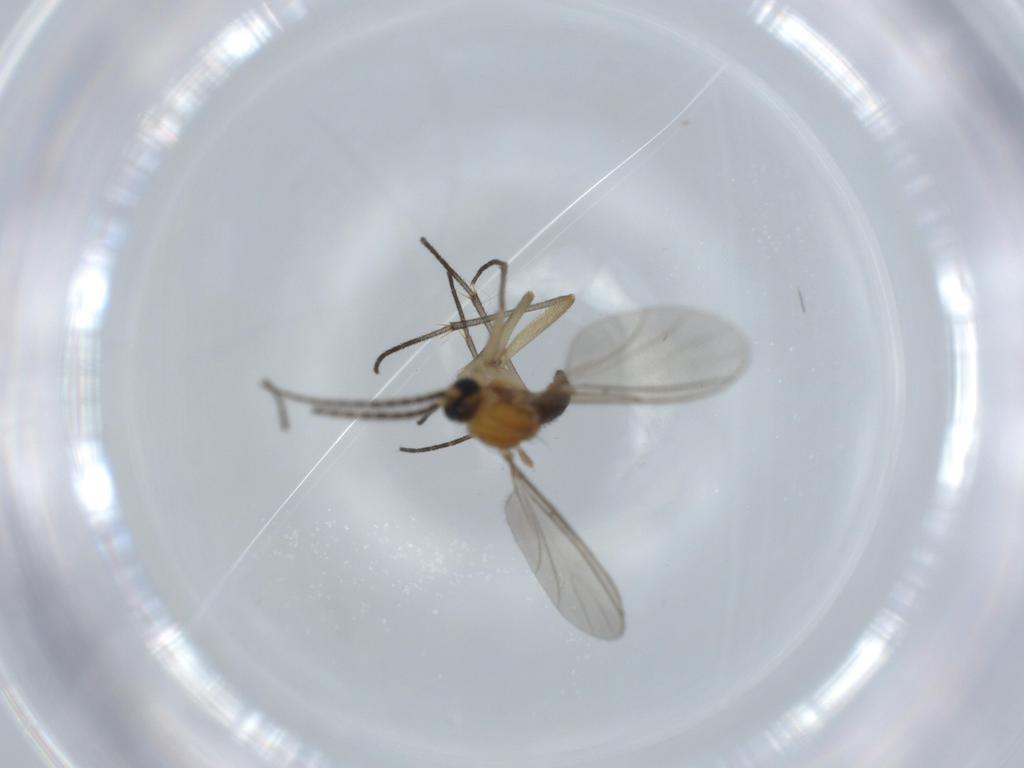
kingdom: Animalia
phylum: Arthropoda
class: Insecta
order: Diptera
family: Sciaridae
